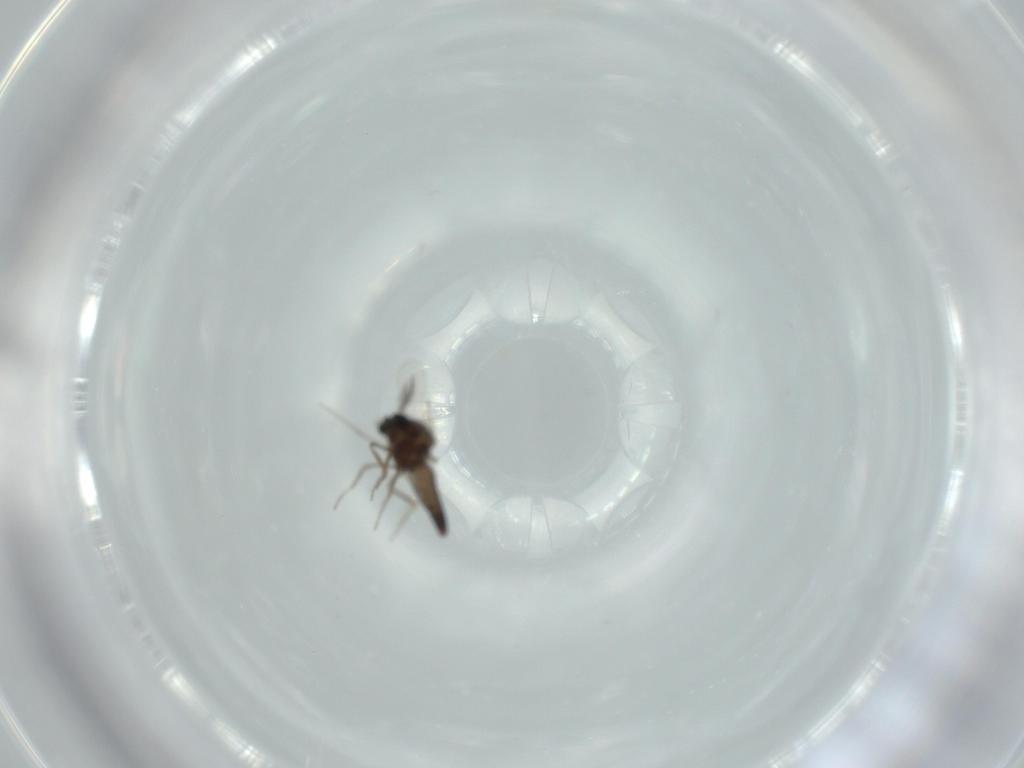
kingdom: Animalia
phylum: Arthropoda
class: Insecta
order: Diptera
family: Ceratopogonidae
